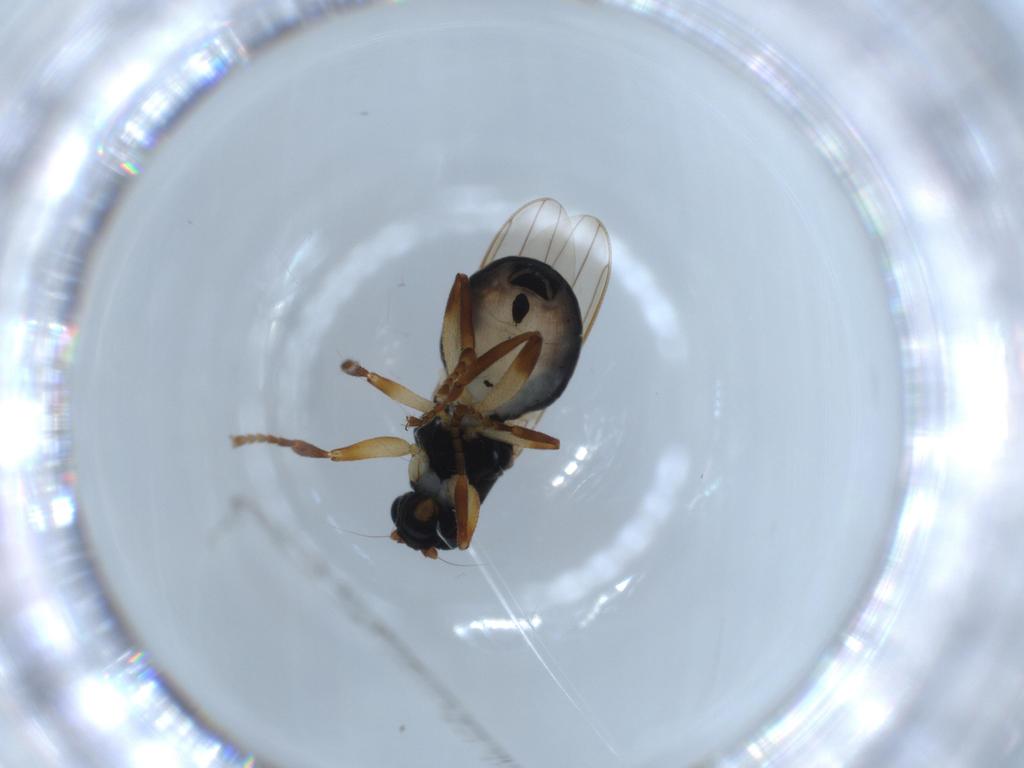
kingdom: Animalia
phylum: Arthropoda
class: Insecta
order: Diptera
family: Sphaeroceridae
